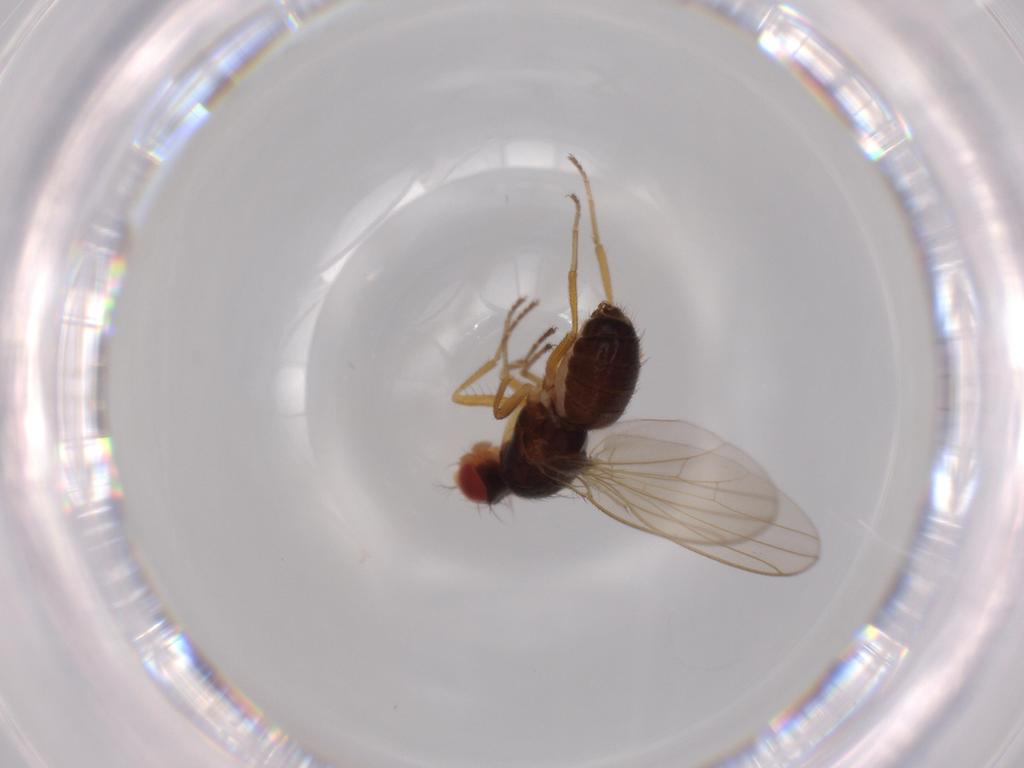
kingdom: Animalia
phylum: Arthropoda
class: Insecta
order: Diptera
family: Drosophilidae
